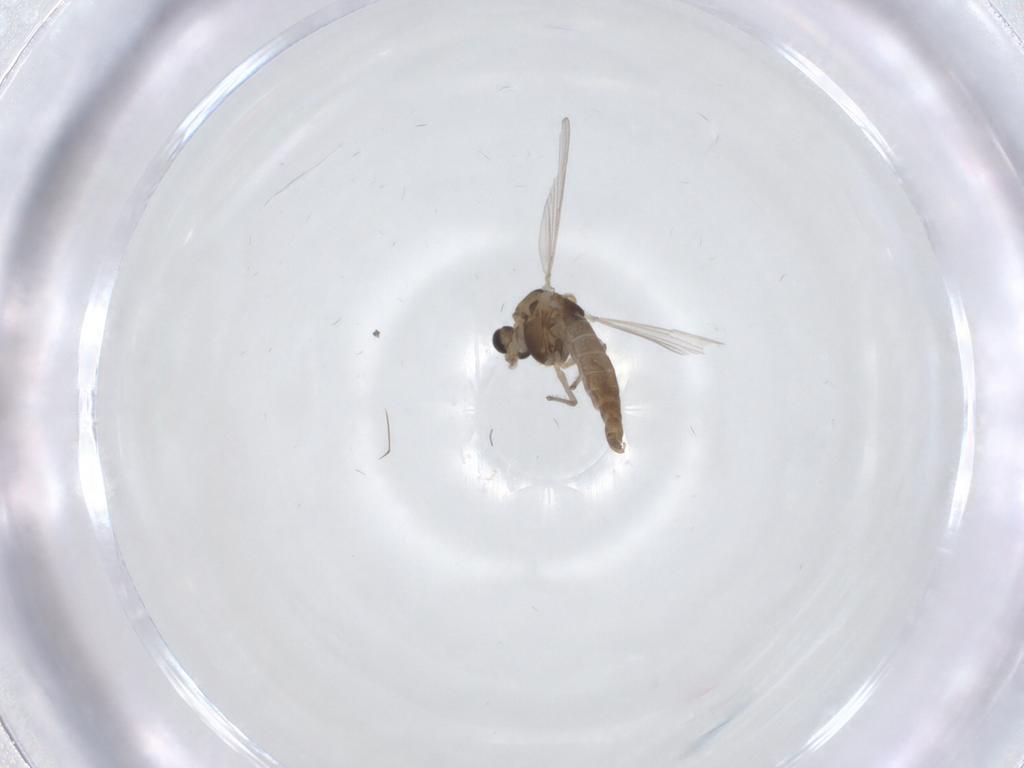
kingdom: Animalia
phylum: Arthropoda
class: Insecta
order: Diptera
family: Chironomidae
